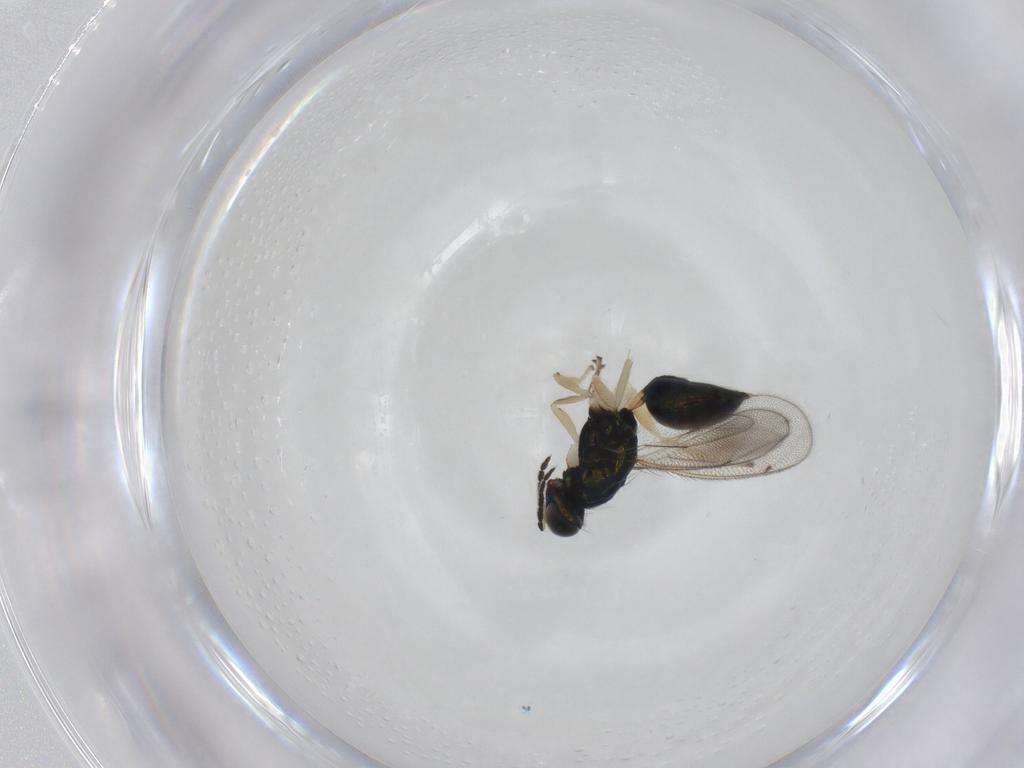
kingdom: Animalia
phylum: Arthropoda
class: Insecta
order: Hymenoptera
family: Eulophidae
